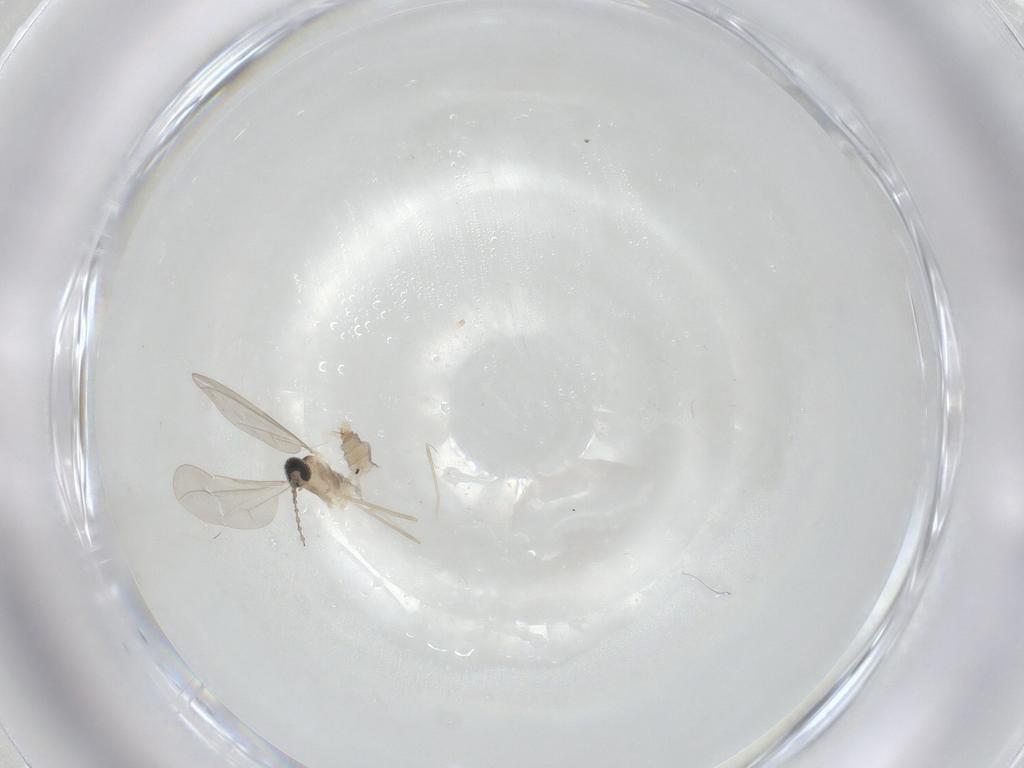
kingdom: Animalia
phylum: Arthropoda
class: Insecta
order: Diptera
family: Cecidomyiidae
